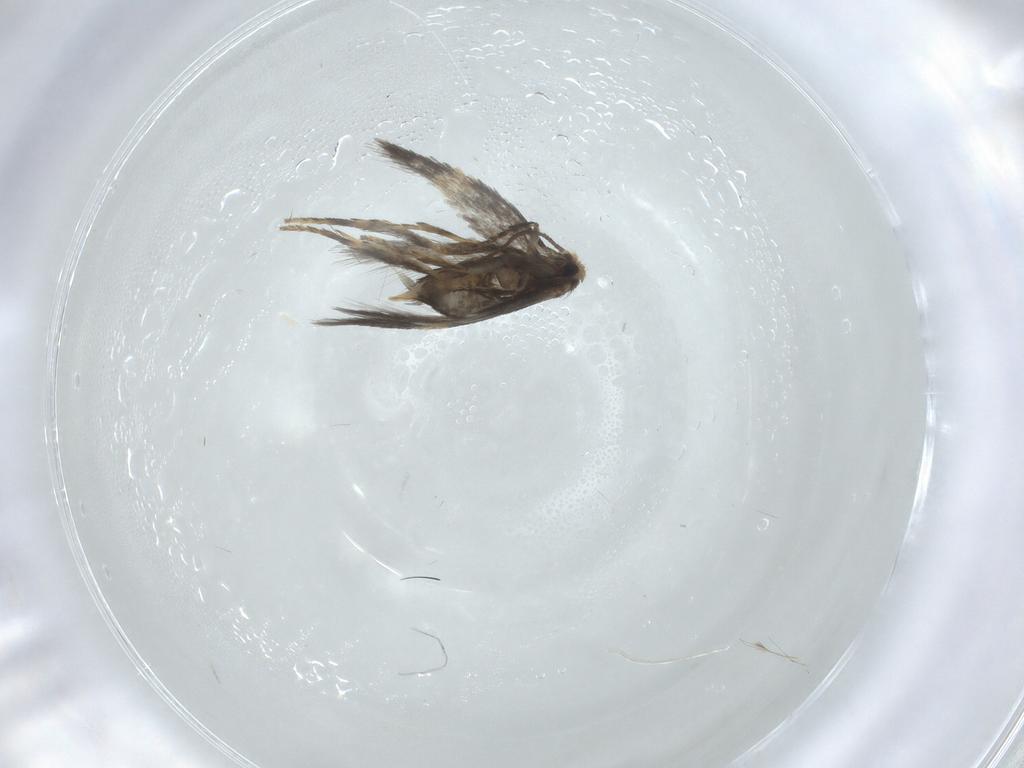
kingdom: Animalia
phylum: Arthropoda
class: Insecta
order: Lepidoptera
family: Nepticulidae
